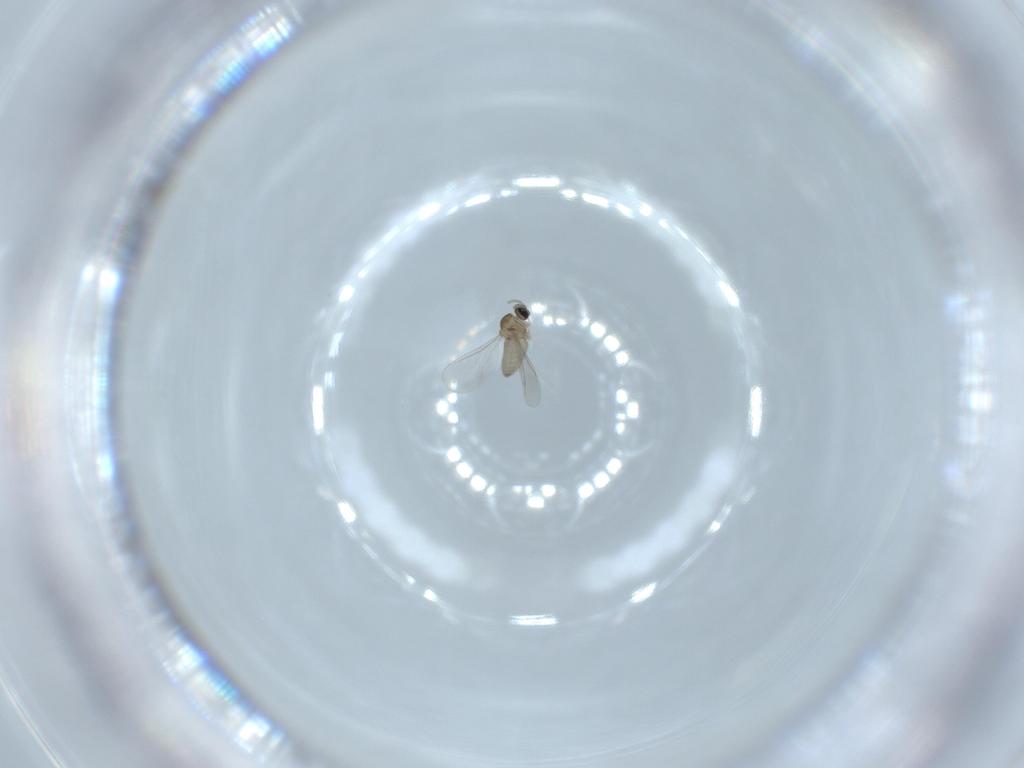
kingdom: Animalia
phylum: Arthropoda
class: Insecta
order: Diptera
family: Cecidomyiidae
